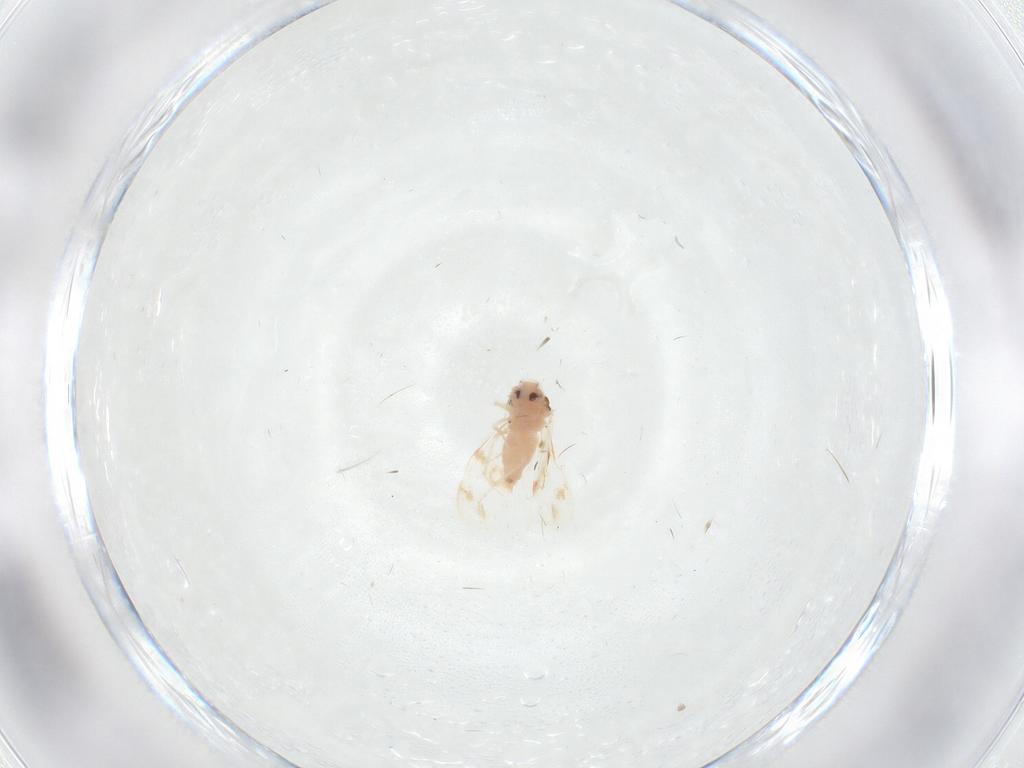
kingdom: Animalia
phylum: Arthropoda
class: Insecta
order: Hemiptera
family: Aleyrodidae
